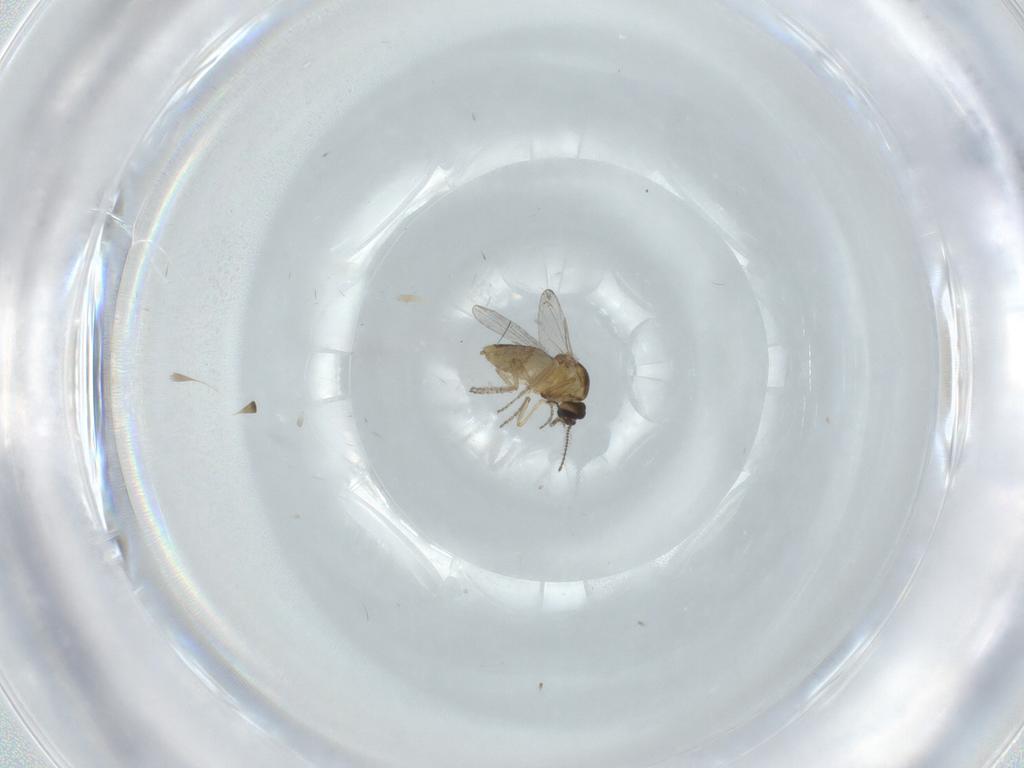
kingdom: Animalia
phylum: Arthropoda
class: Insecta
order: Diptera
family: Ceratopogonidae
